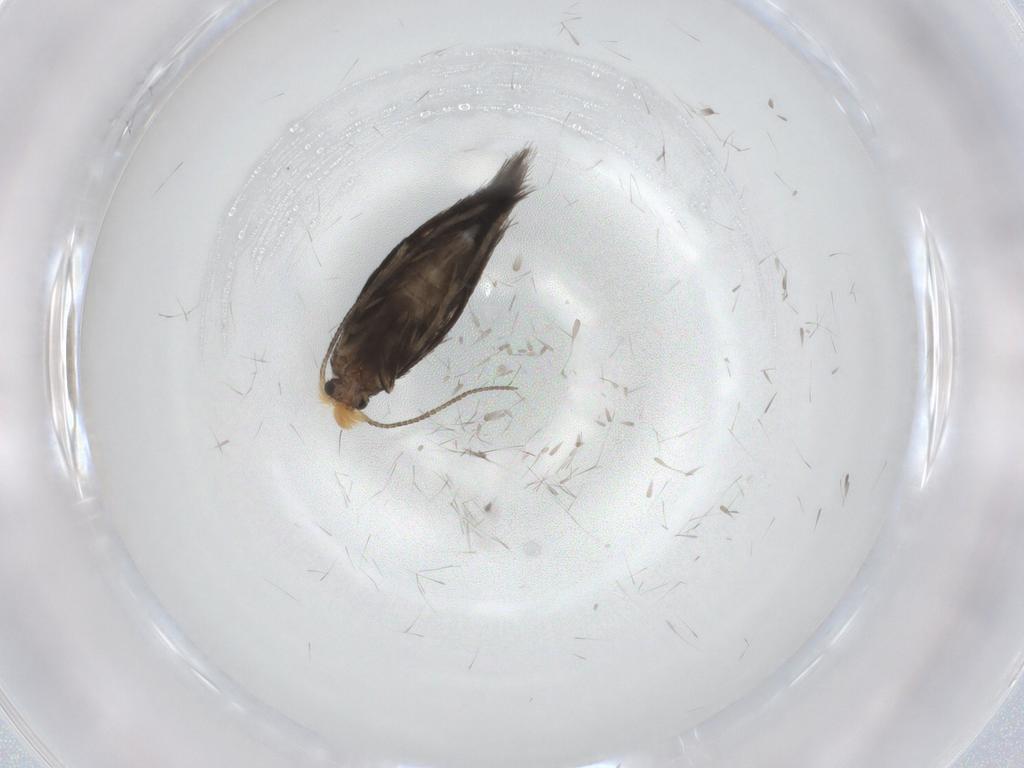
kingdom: Animalia
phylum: Arthropoda
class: Insecta
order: Lepidoptera
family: Nepticulidae
